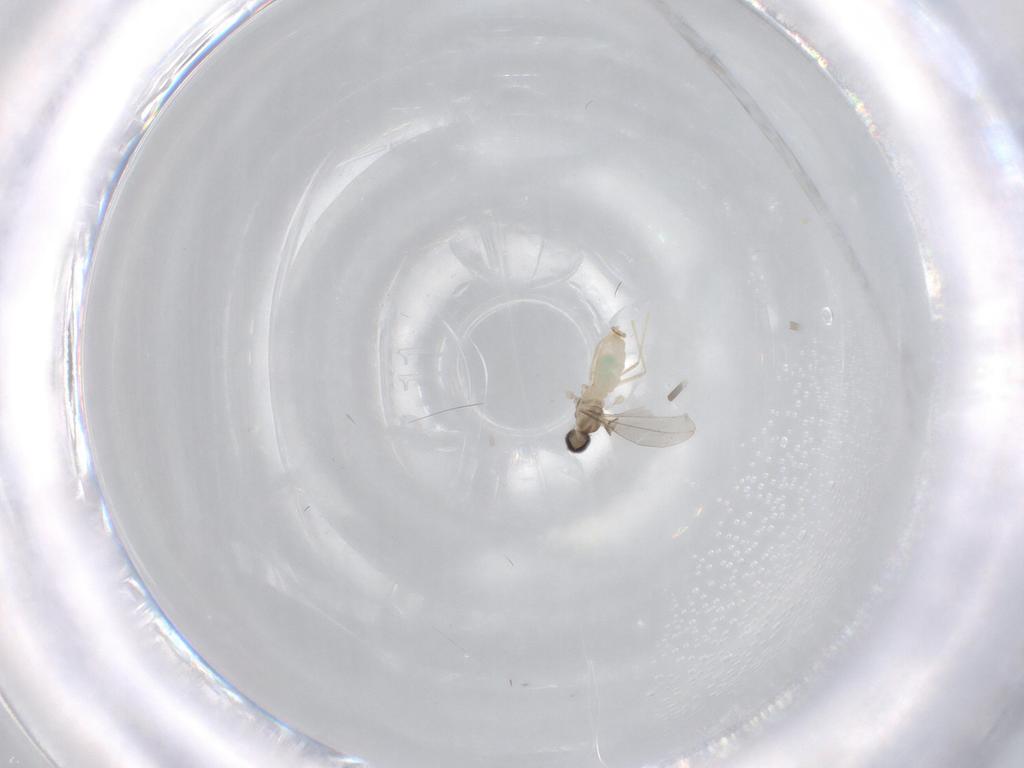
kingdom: Animalia
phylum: Arthropoda
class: Insecta
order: Diptera
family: Cecidomyiidae
